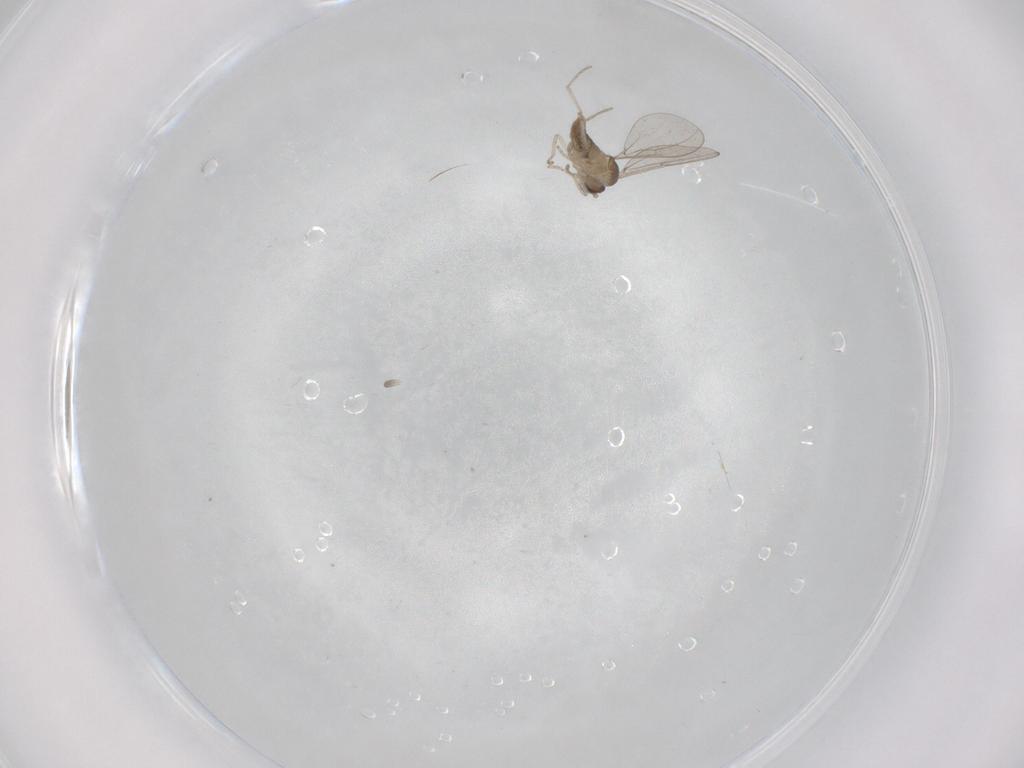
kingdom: Animalia
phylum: Arthropoda
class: Insecta
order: Diptera
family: Cecidomyiidae
